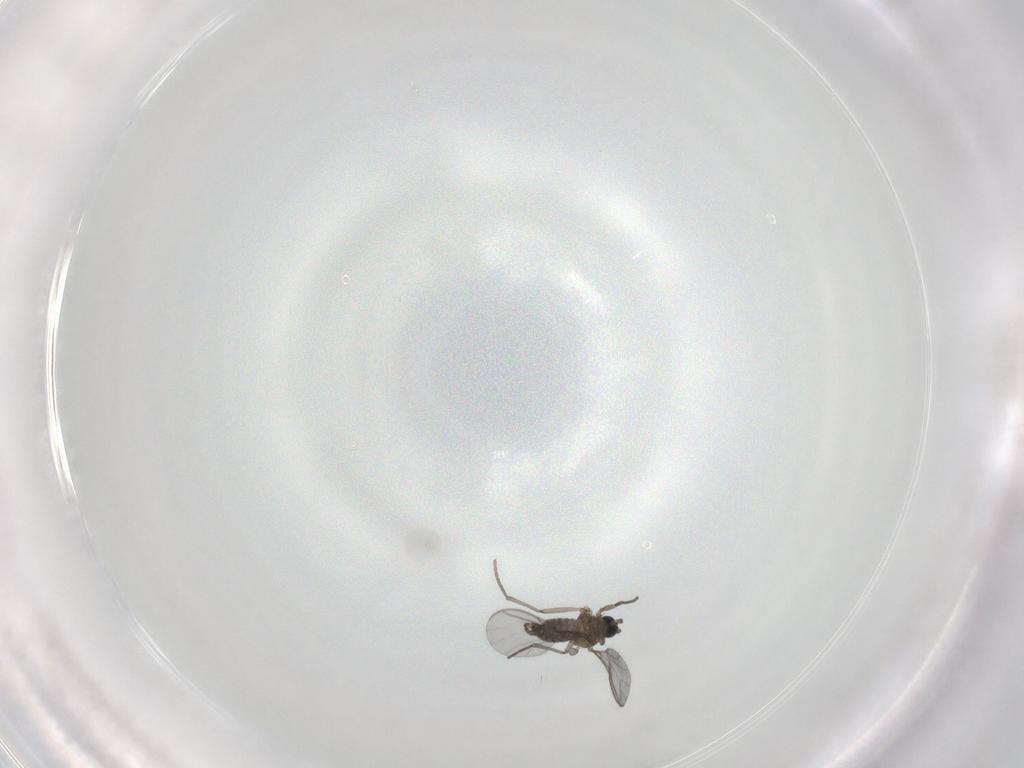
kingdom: Animalia
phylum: Arthropoda
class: Insecta
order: Diptera
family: Sciaridae
